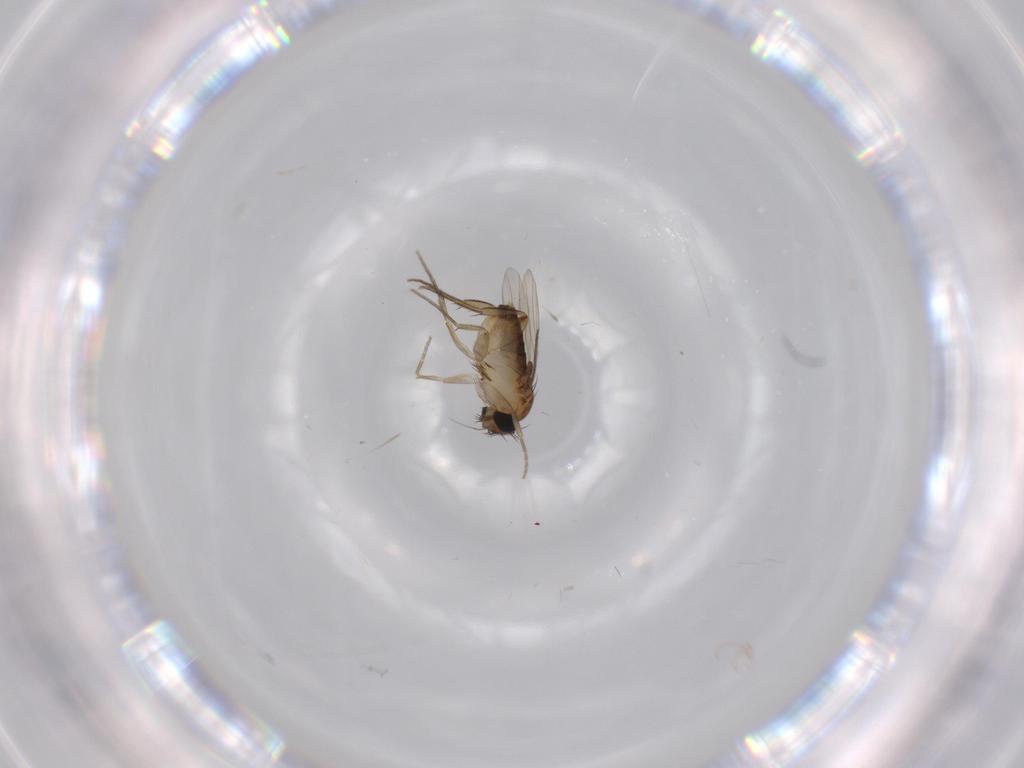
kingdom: Animalia
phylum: Arthropoda
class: Insecta
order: Diptera
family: Phoridae
